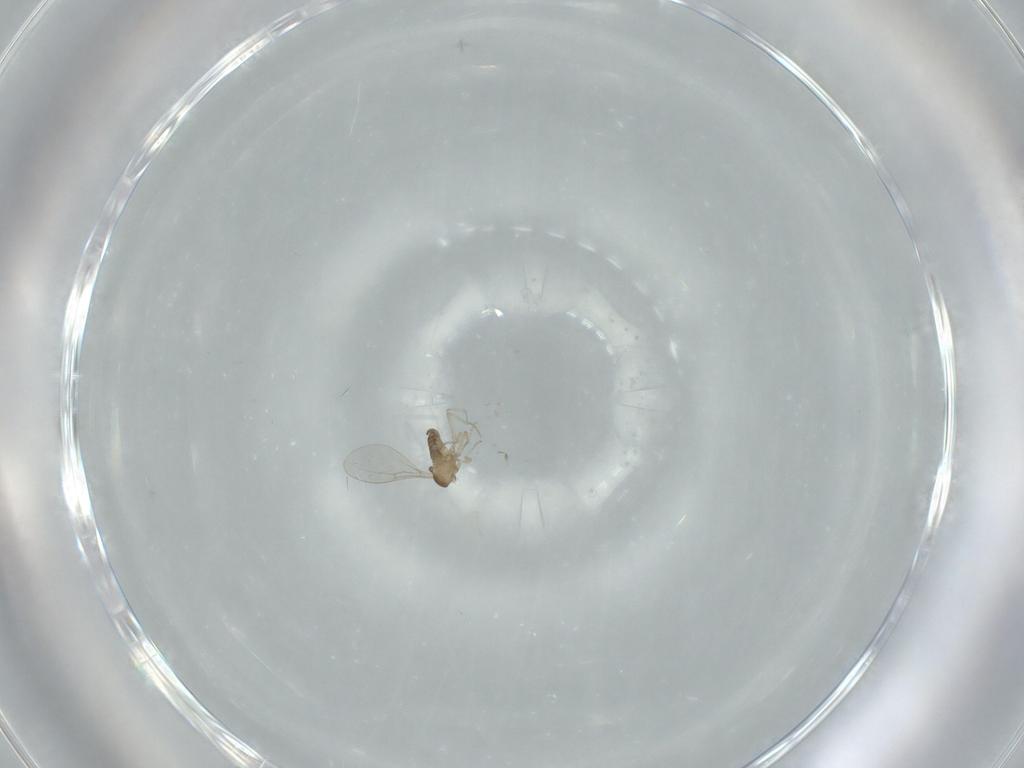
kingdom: Animalia
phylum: Arthropoda
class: Insecta
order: Diptera
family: Cecidomyiidae
